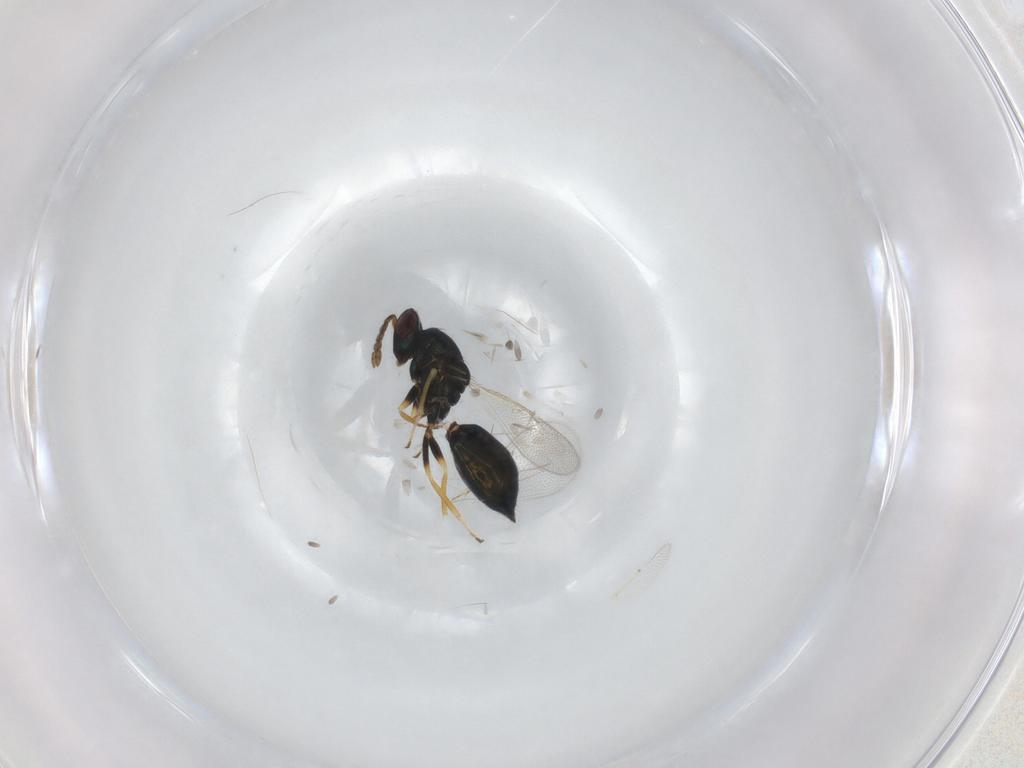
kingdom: Animalia
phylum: Arthropoda
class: Insecta
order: Hymenoptera
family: Eulophidae
